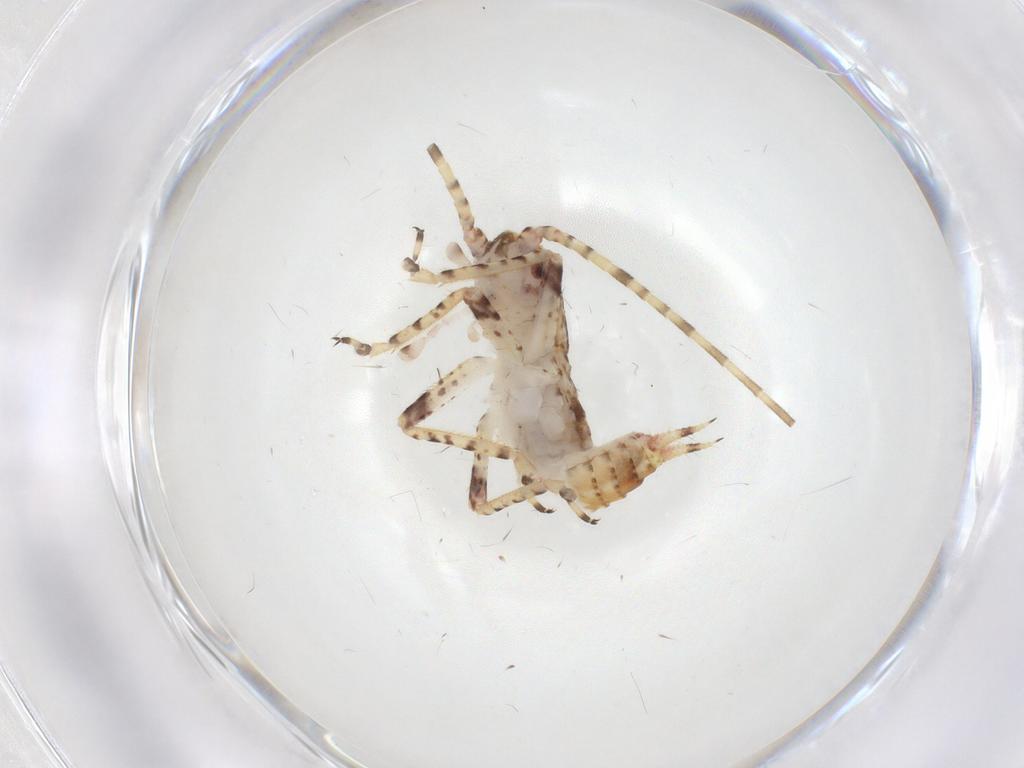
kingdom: Animalia
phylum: Arthropoda
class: Insecta
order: Orthoptera
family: Gryllidae
